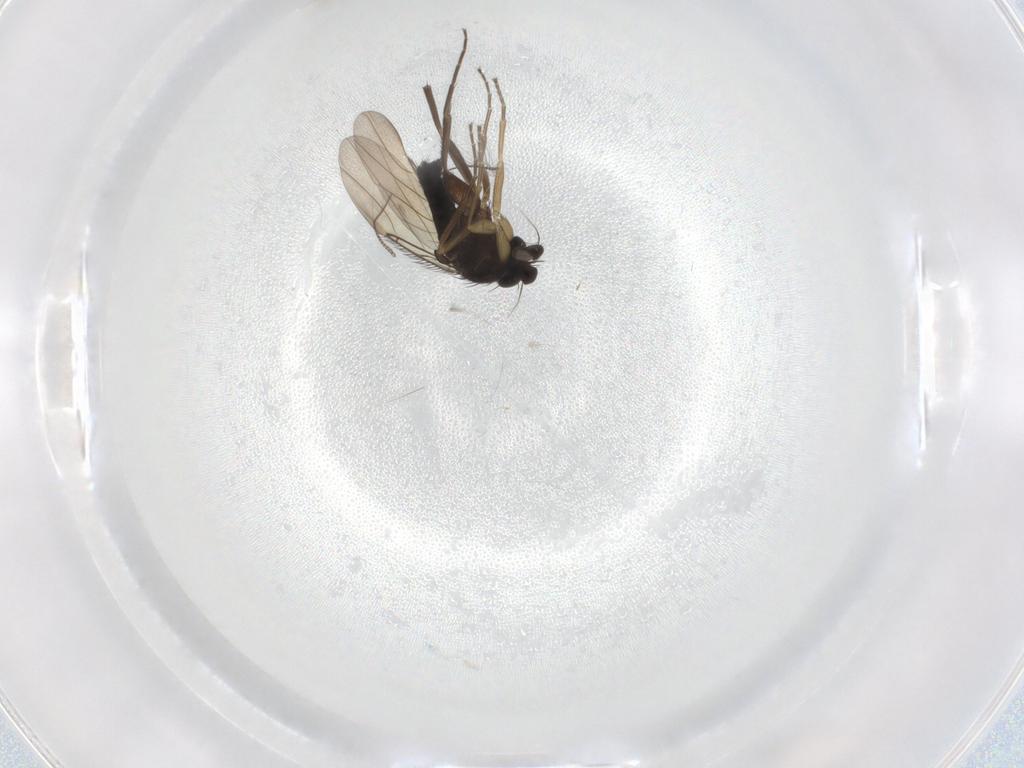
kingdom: Animalia
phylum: Arthropoda
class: Insecta
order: Diptera
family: Phoridae
